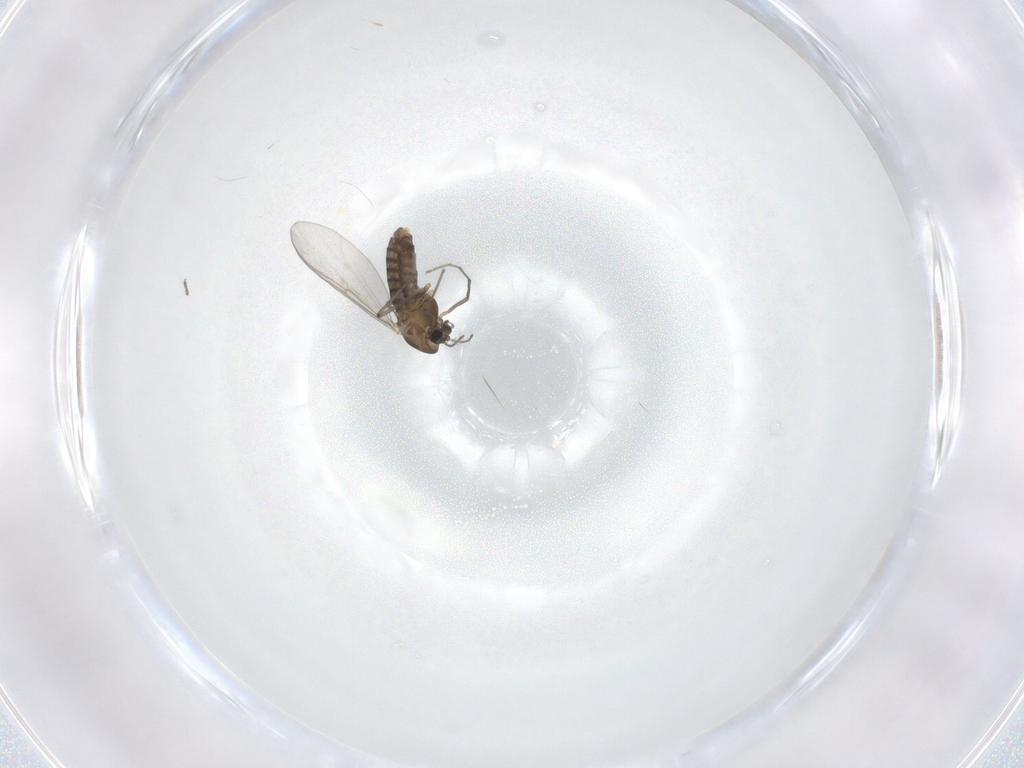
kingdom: Animalia
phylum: Arthropoda
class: Insecta
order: Diptera
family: Chironomidae
